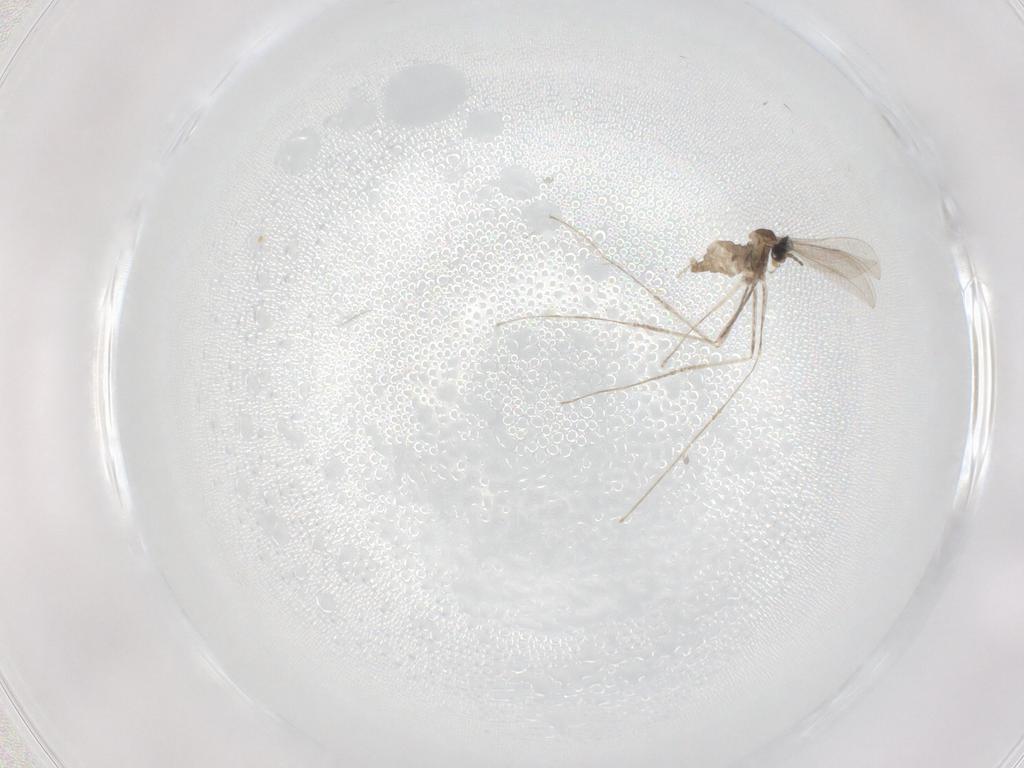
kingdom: Animalia
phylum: Arthropoda
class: Insecta
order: Diptera
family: Cecidomyiidae
